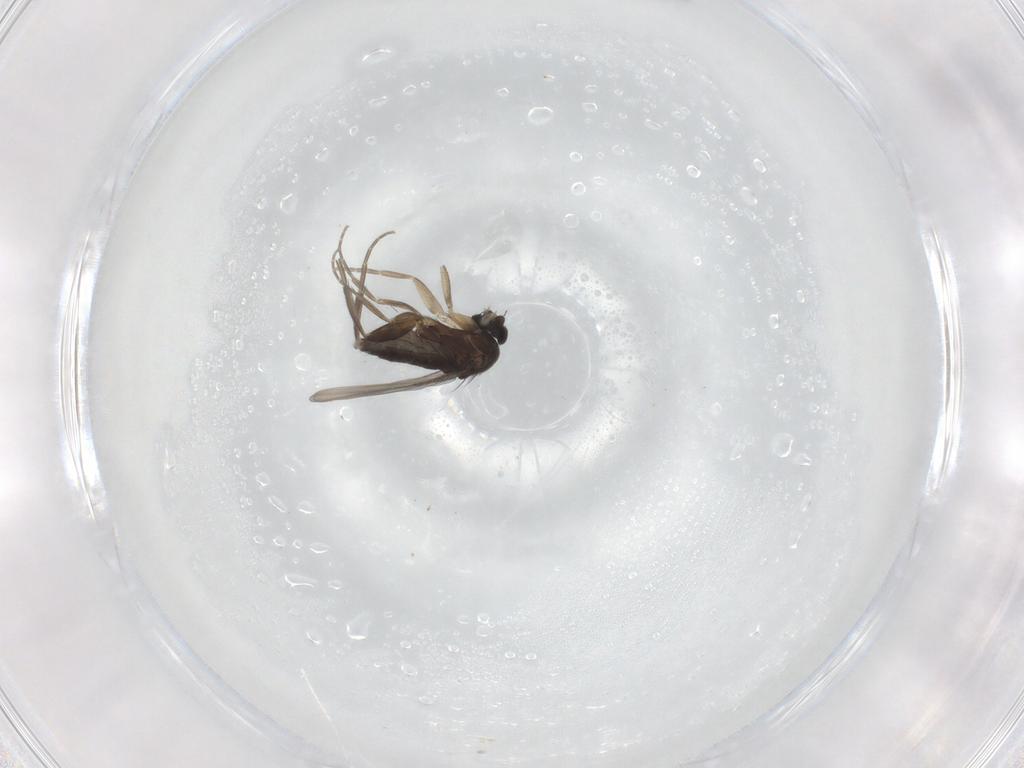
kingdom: Animalia
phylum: Arthropoda
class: Insecta
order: Diptera
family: Phoridae
